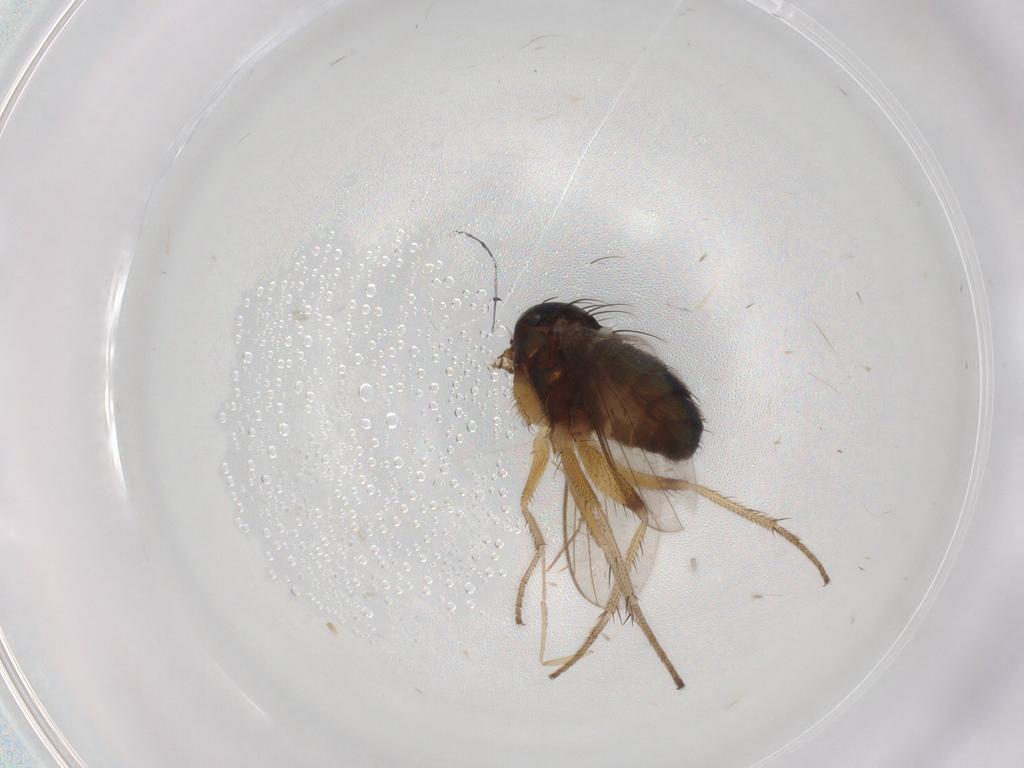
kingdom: Animalia
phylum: Arthropoda
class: Insecta
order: Diptera
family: Dolichopodidae
